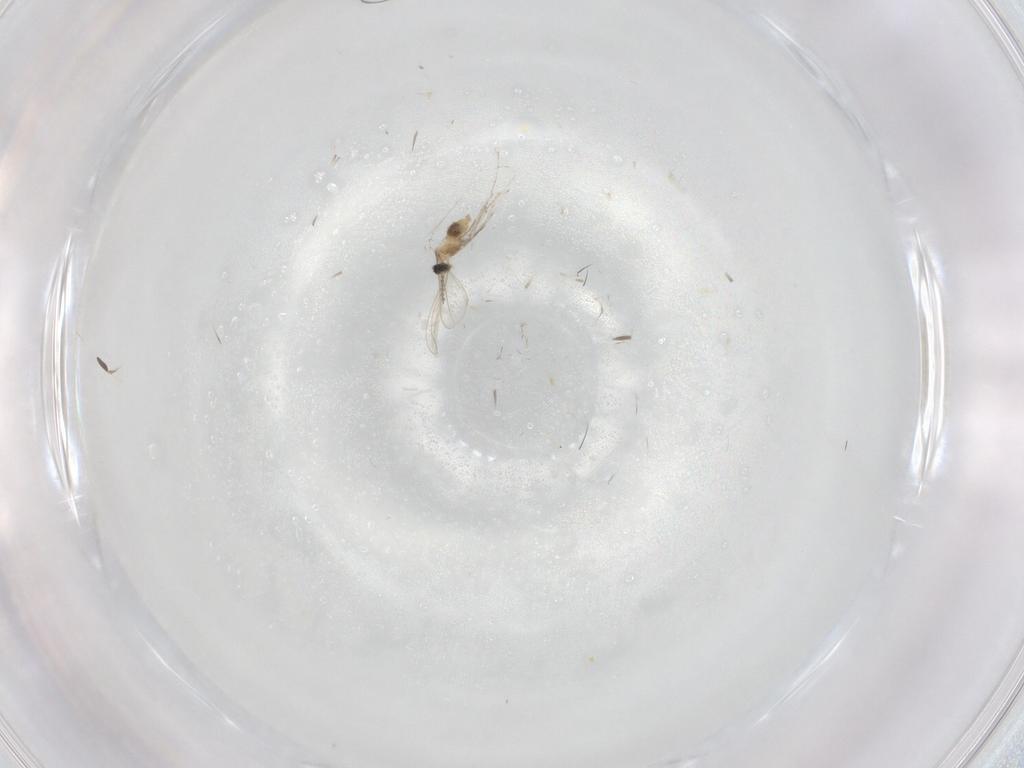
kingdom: Animalia
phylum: Arthropoda
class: Insecta
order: Diptera
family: Cecidomyiidae
